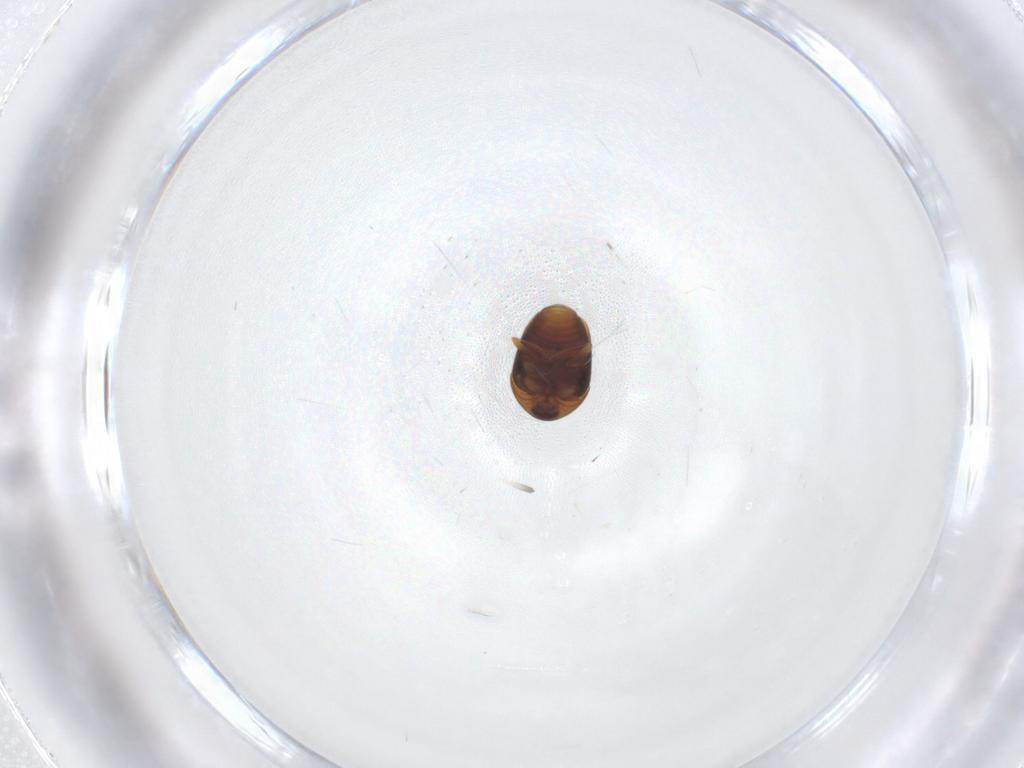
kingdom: Animalia
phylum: Arthropoda
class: Insecta
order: Coleoptera
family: Corylophidae
